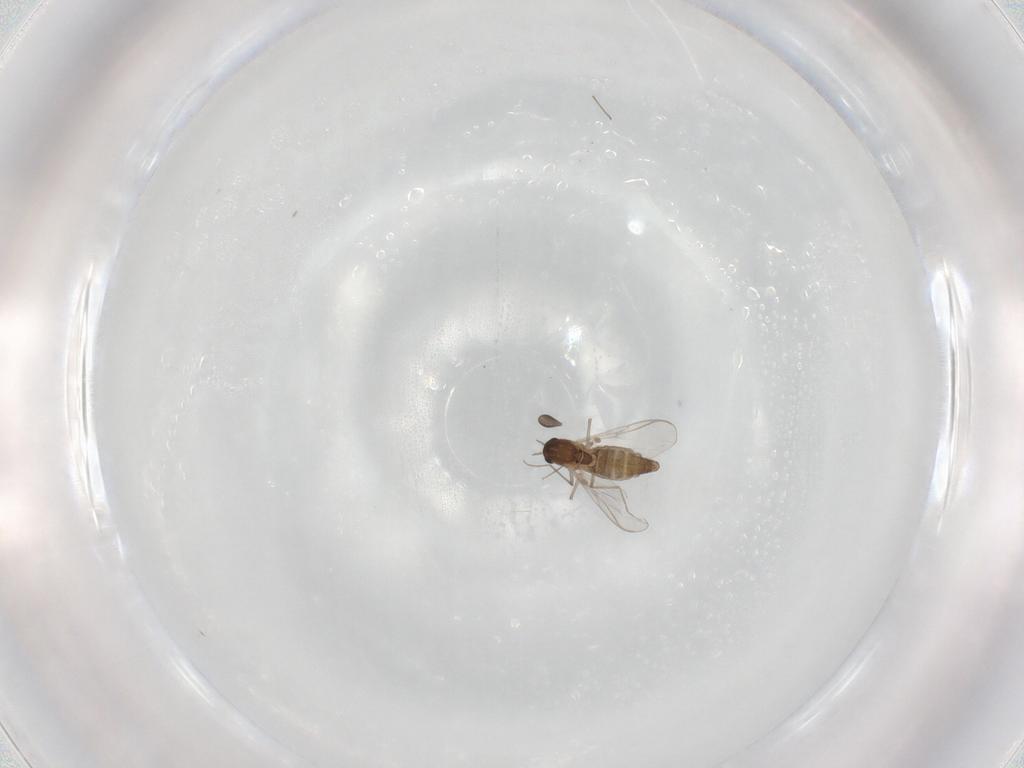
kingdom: Animalia
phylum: Arthropoda
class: Insecta
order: Diptera
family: Chironomidae
